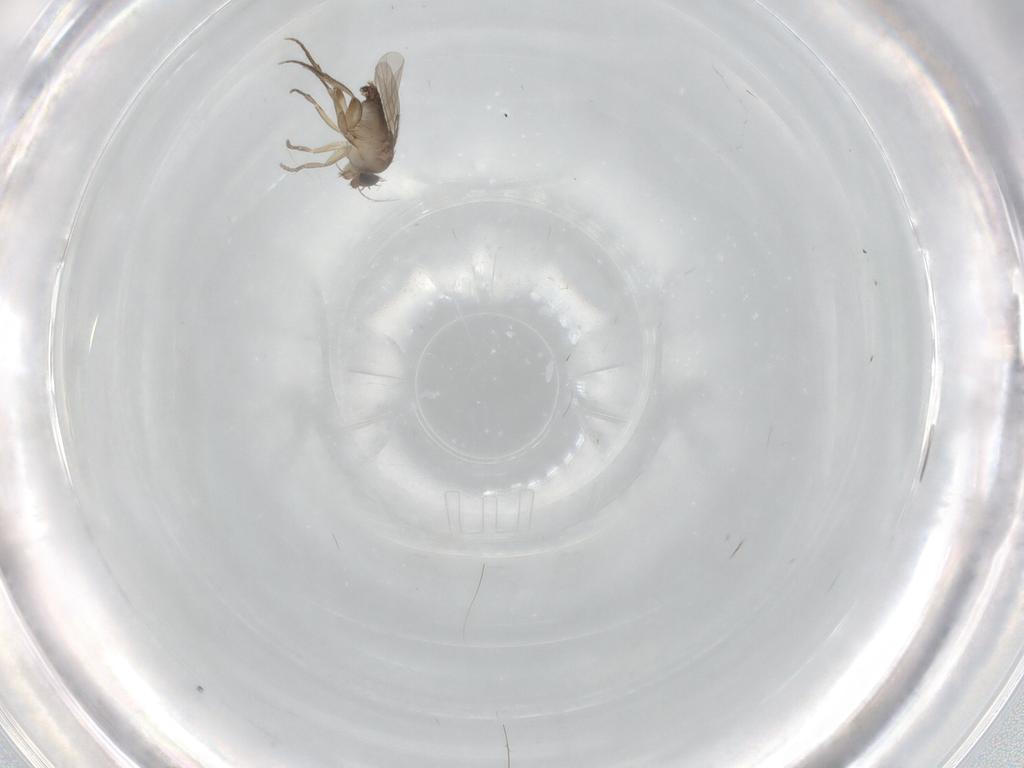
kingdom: Animalia
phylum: Arthropoda
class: Insecta
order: Diptera
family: Phoridae
